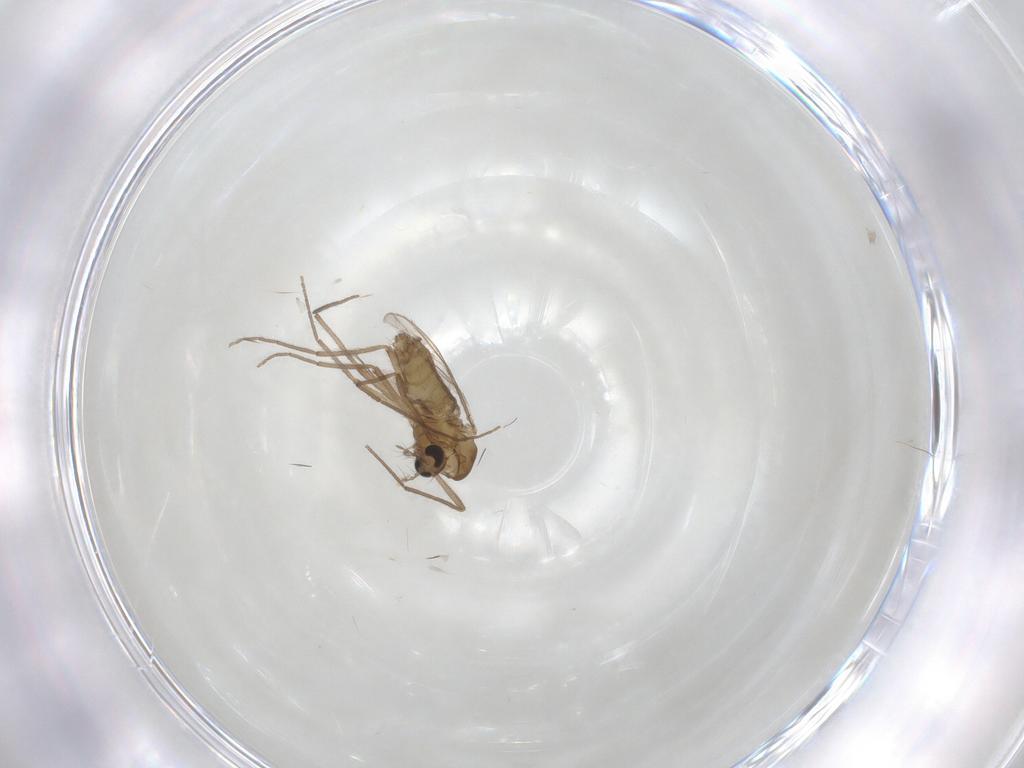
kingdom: Animalia
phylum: Arthropoda
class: Insecta
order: Diptera
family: Chironomidae
